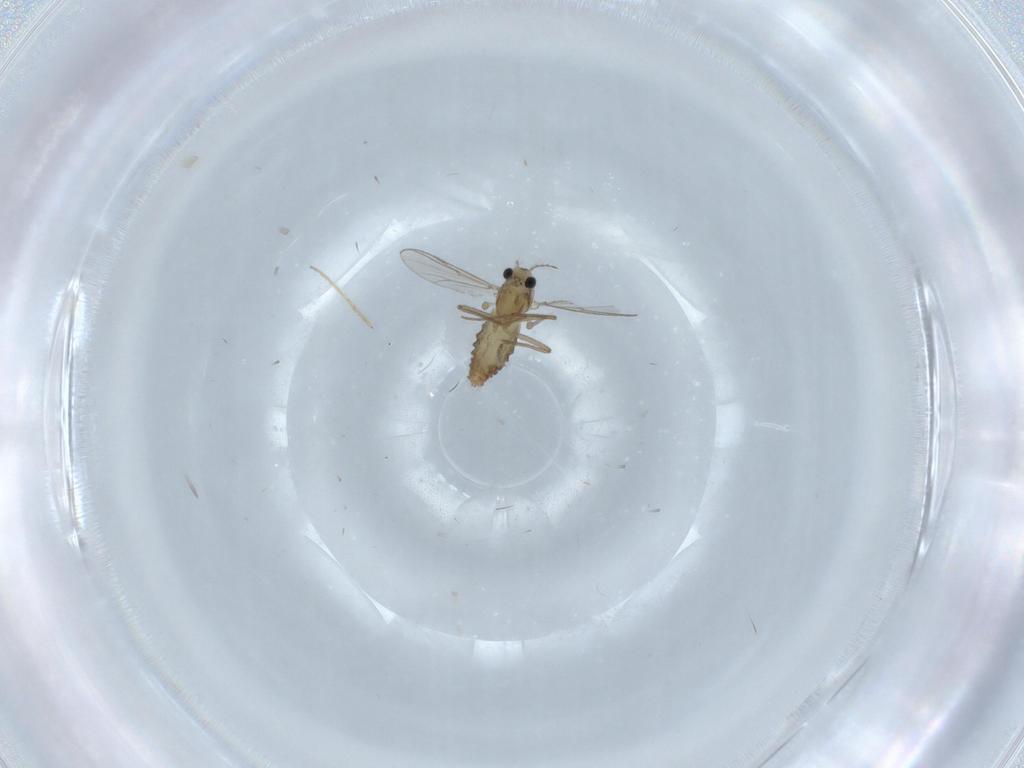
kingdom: Animalia
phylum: Arthropoda
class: Insecta
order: Diptera
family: Chironomidae
